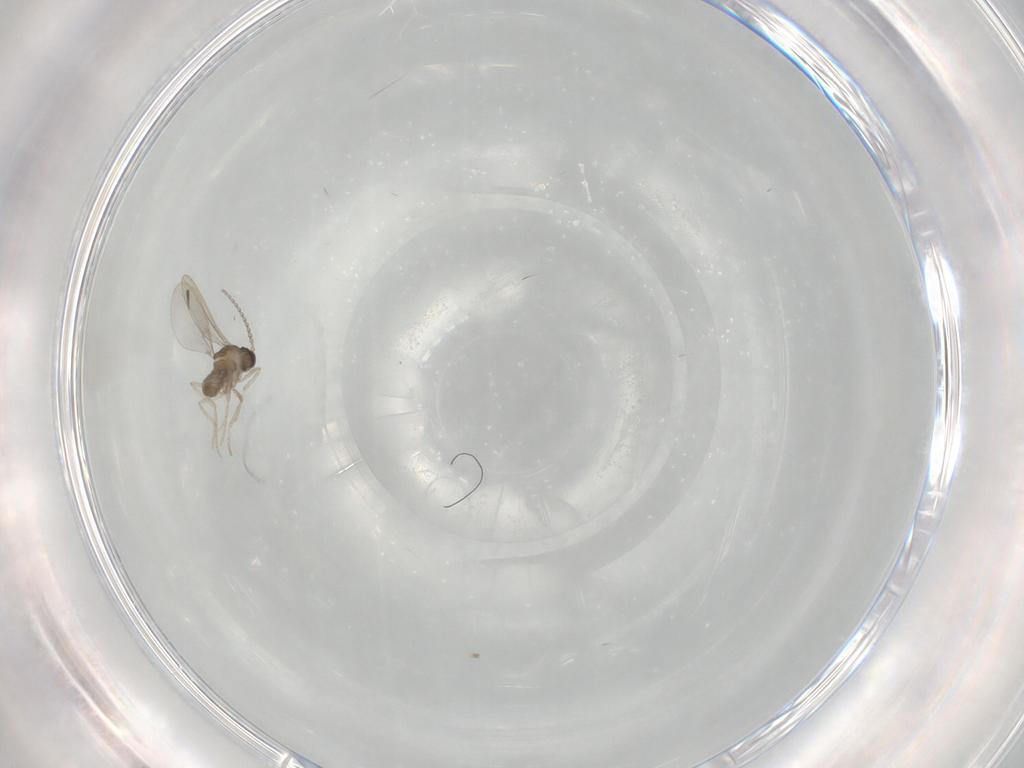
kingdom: Animalia
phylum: Arthropoda
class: Insecta
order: Diptera
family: Cecidomyiidae
